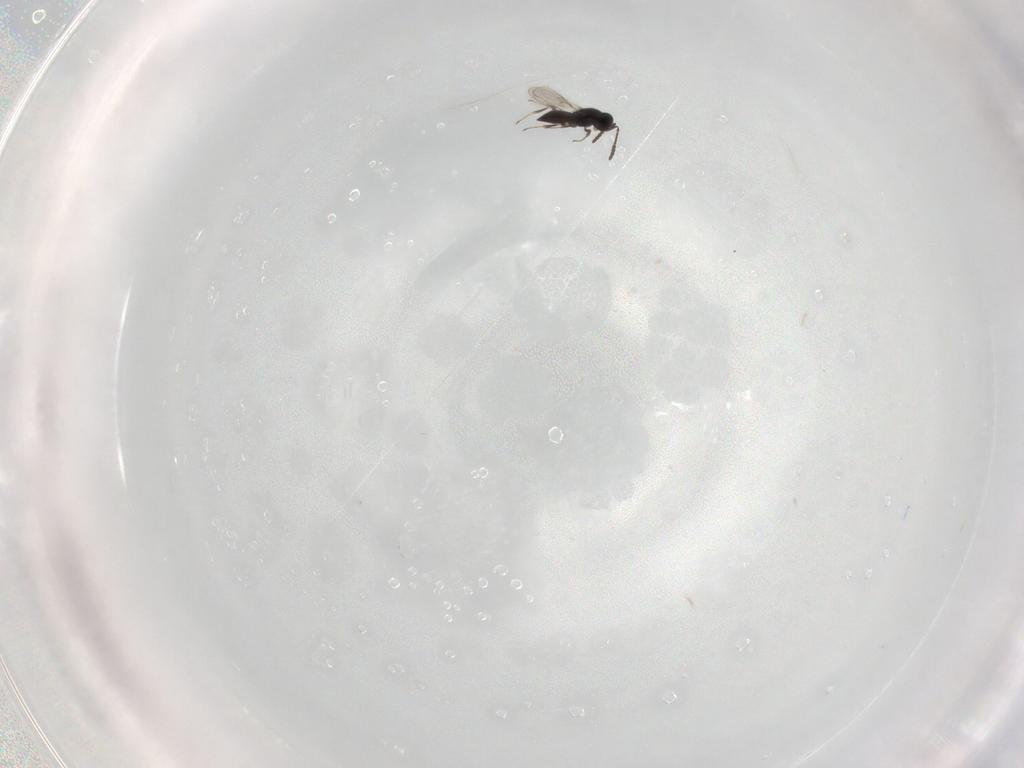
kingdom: Animalia
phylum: Arthropoda
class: Insecta
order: Hymenoptera
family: Scelionidae
